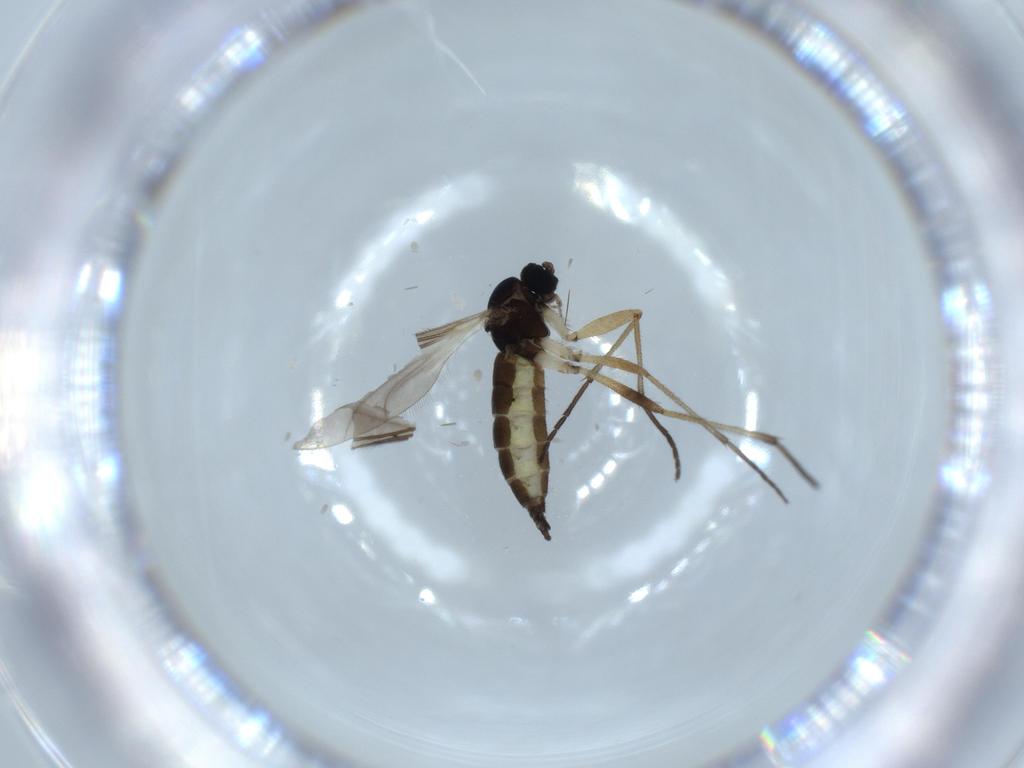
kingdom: Animalia
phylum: Arthropoda
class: Insecta
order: Diptera
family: Sciaridae
